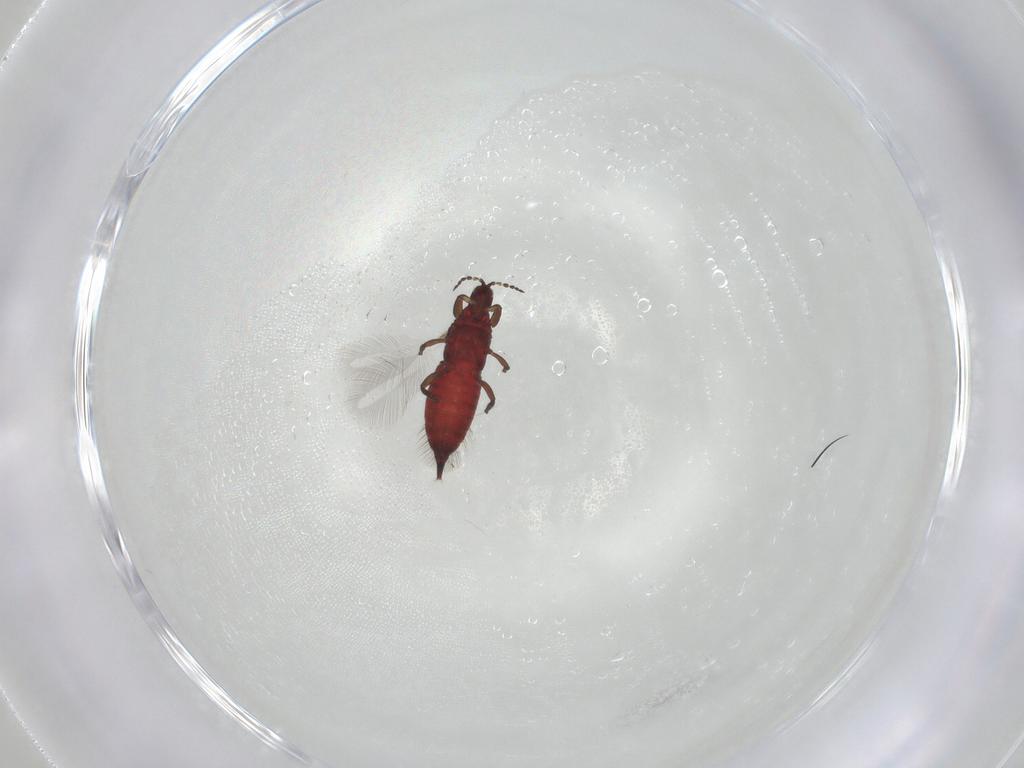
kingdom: Animalia
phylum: Arthropoda
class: Insecta
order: Thysanoptera
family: Phlaeothripidae
